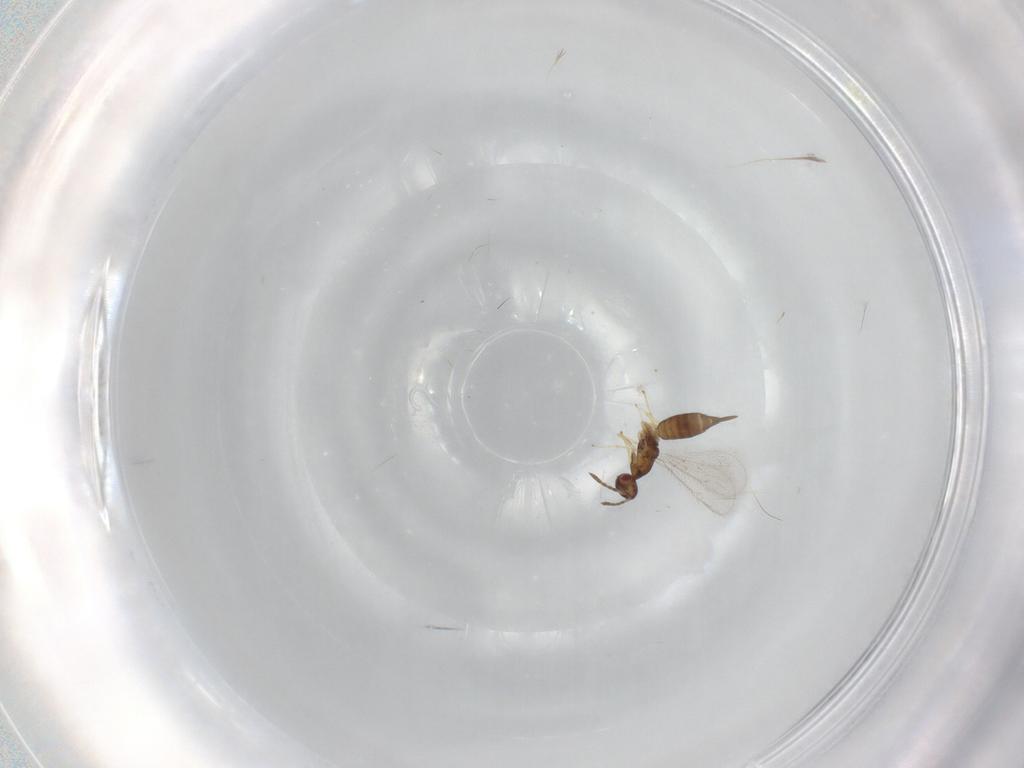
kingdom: Animalia
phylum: Arthropoda
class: Insecta
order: Hymenoptera
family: Eulophidae
